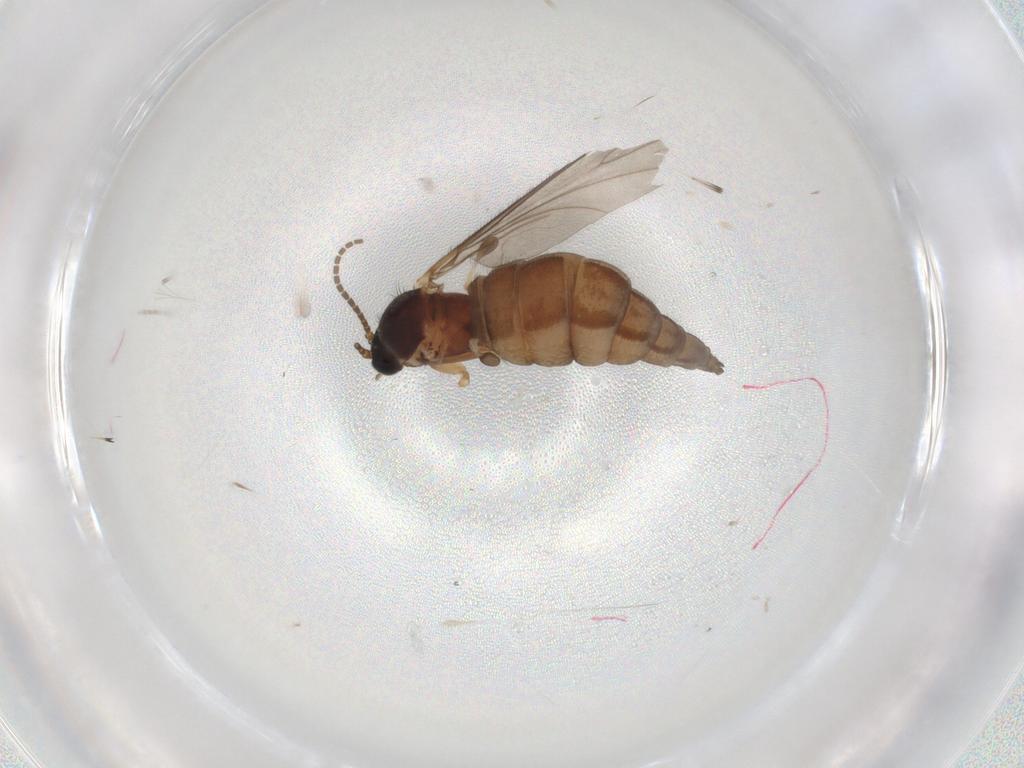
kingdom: Animalia
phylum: Arthropoda
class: Insecta
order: Diptera
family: Sciaridae
